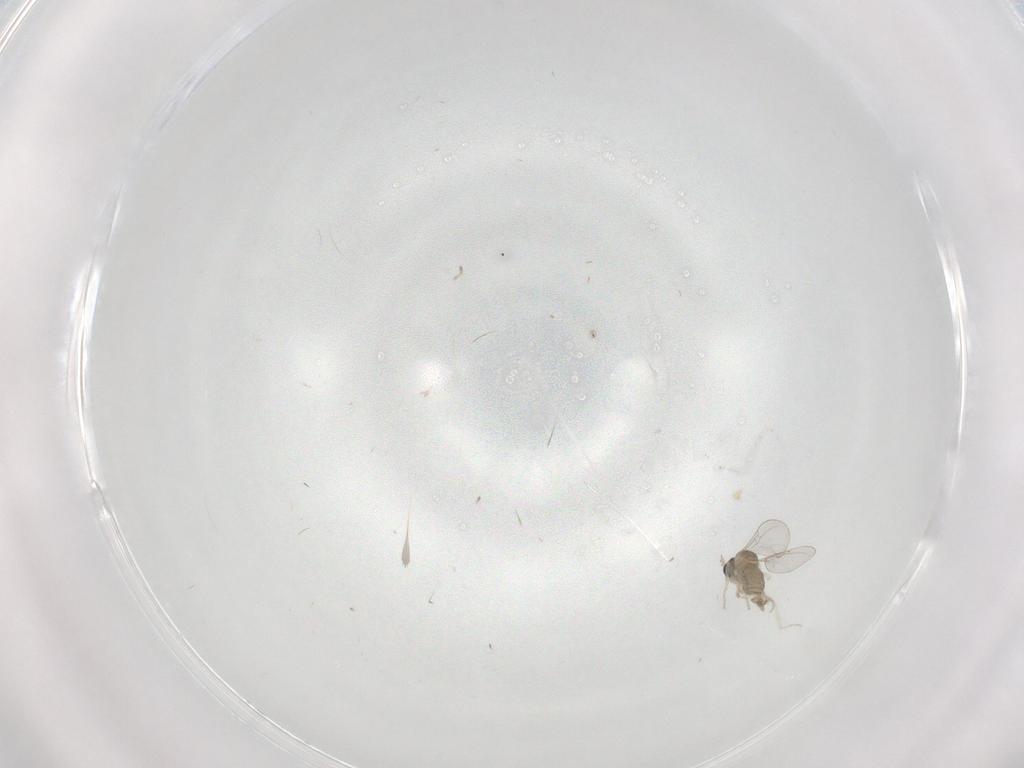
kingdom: Animalia
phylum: Arthropoda
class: Insecta
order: Diptera
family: Cecidomyiidae
